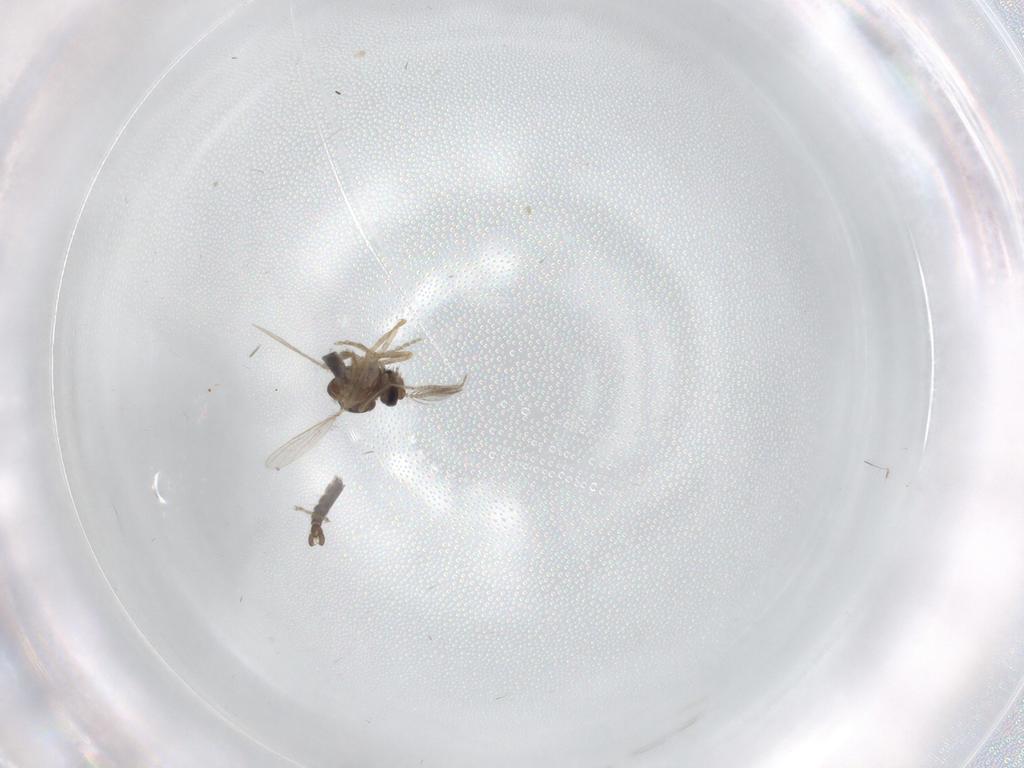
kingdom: Animalia
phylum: Arthropoda
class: Insecta
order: Diptera
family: Ceratopogonidae
